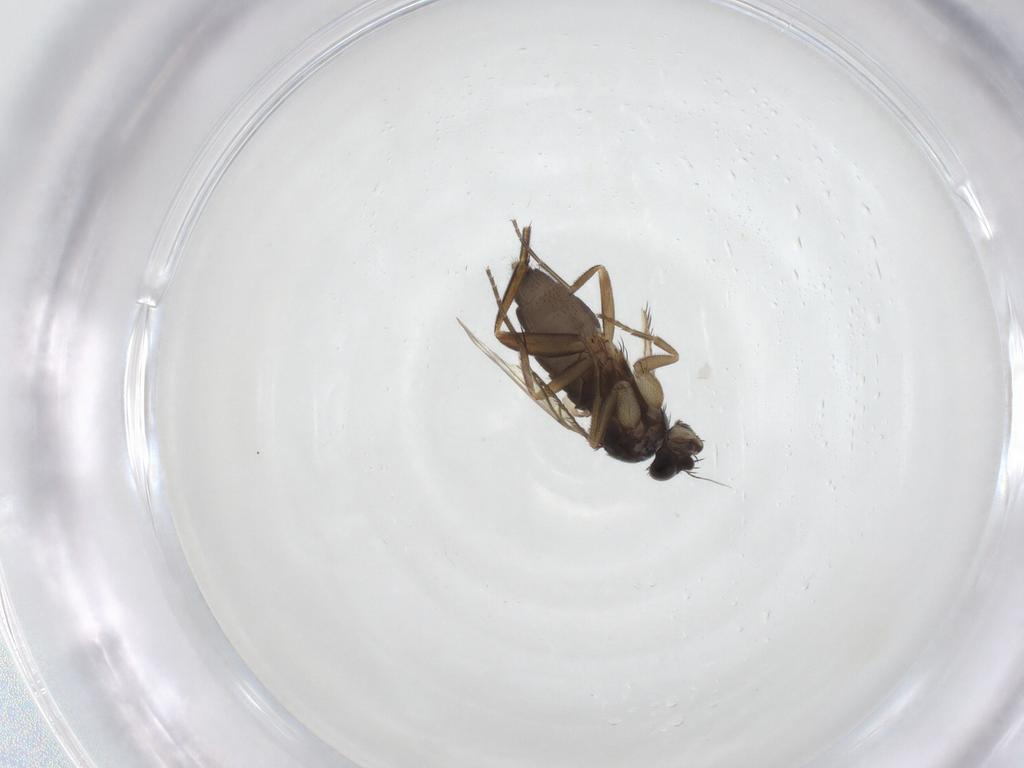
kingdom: Animalia
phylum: Arthropoda
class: Insecta
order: Diptera
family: Phoridae
